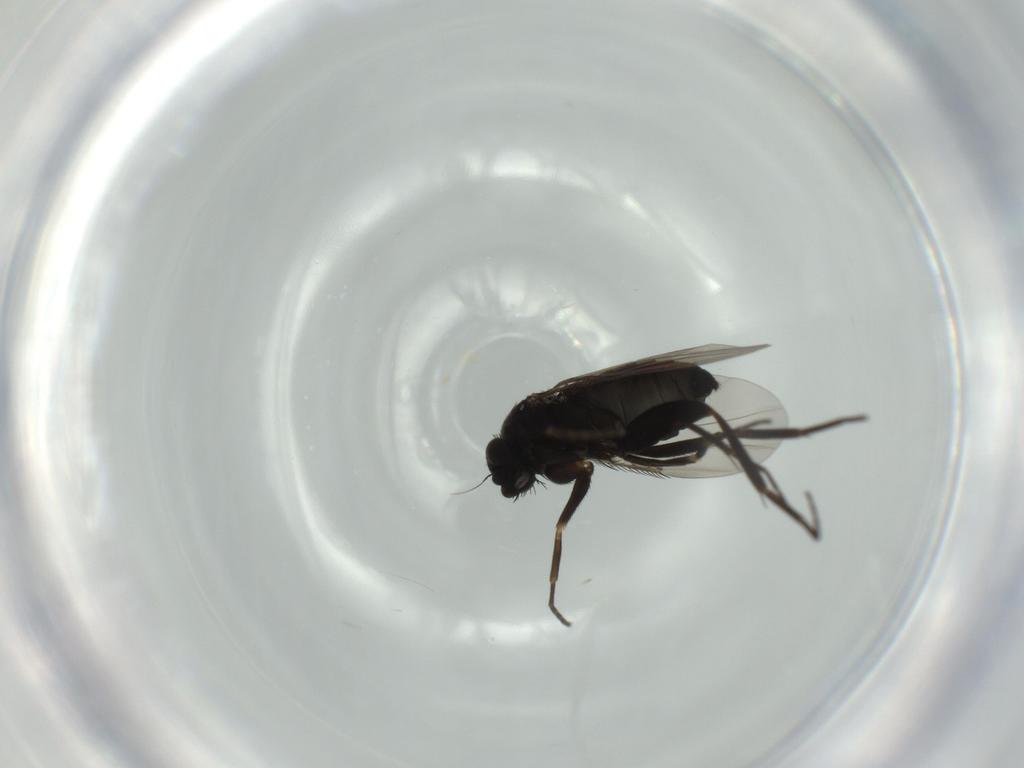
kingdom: Animalia
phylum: Arthropoda
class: Insecta
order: Diptera
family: Phoridae
